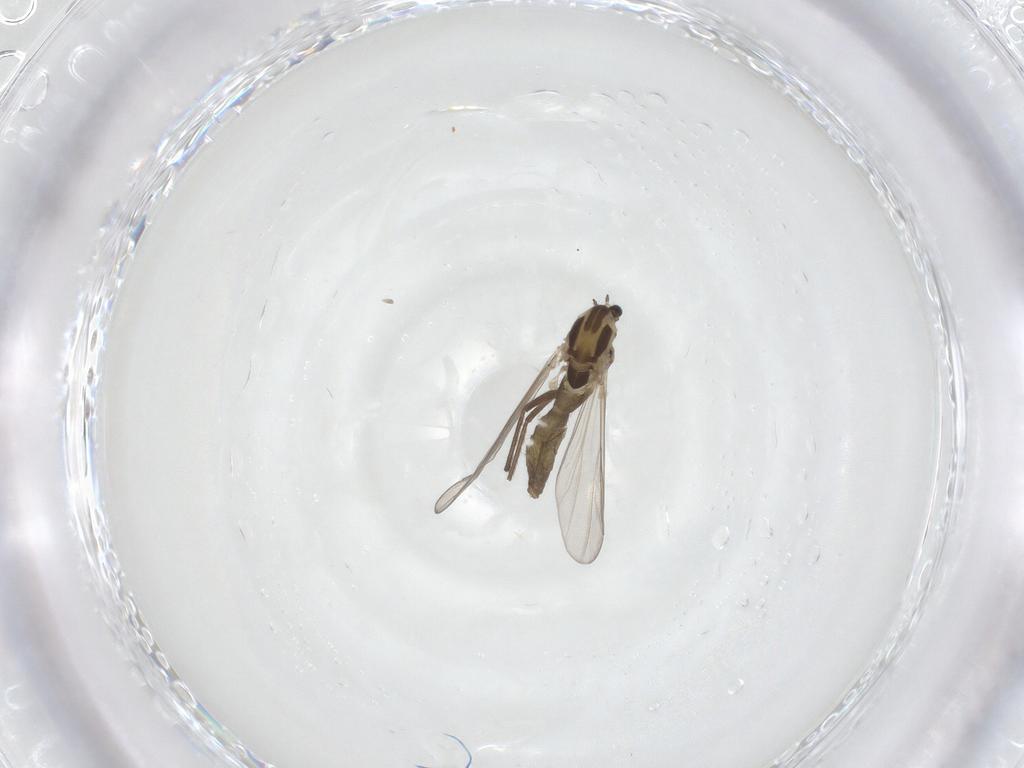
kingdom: Animalia
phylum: Arthropoda
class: Insecta
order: Diptera
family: Chironomidae
